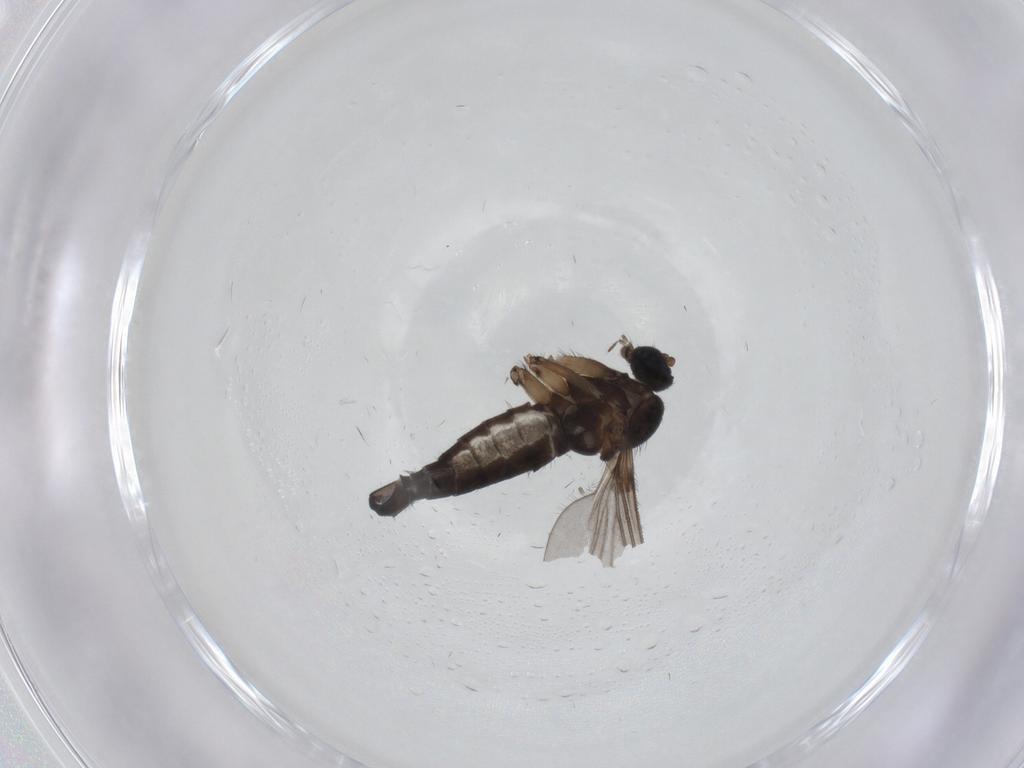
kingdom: Animalia
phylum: Arthropoda
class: Insecta
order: Diptera
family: Sciaridae
